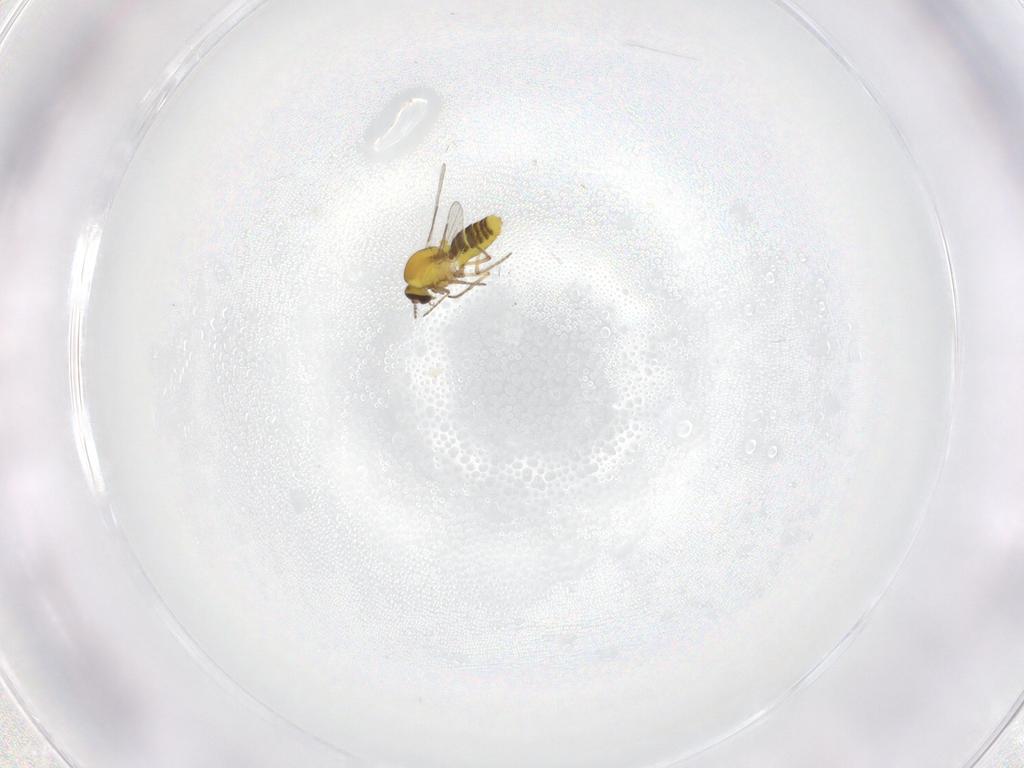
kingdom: Animalia
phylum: Arthropoda
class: Insecta
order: Diptera
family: Ceratopogonidae
